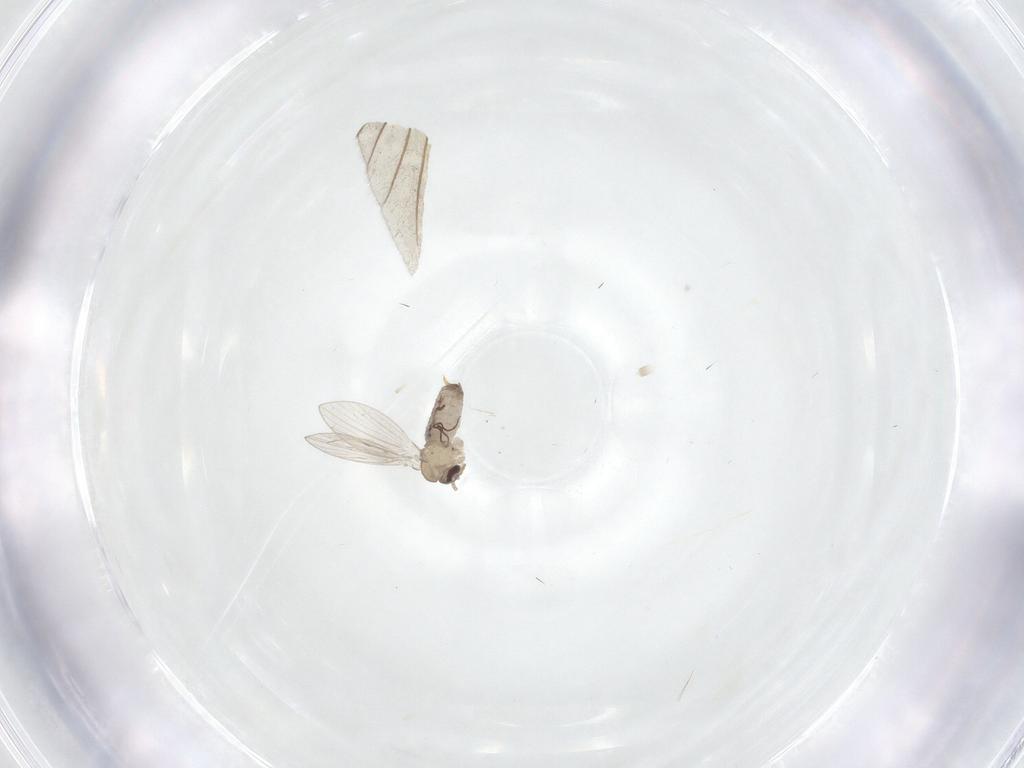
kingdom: Animalia
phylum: Arthropoda
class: Insecta
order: Diptera
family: Psychodidae
